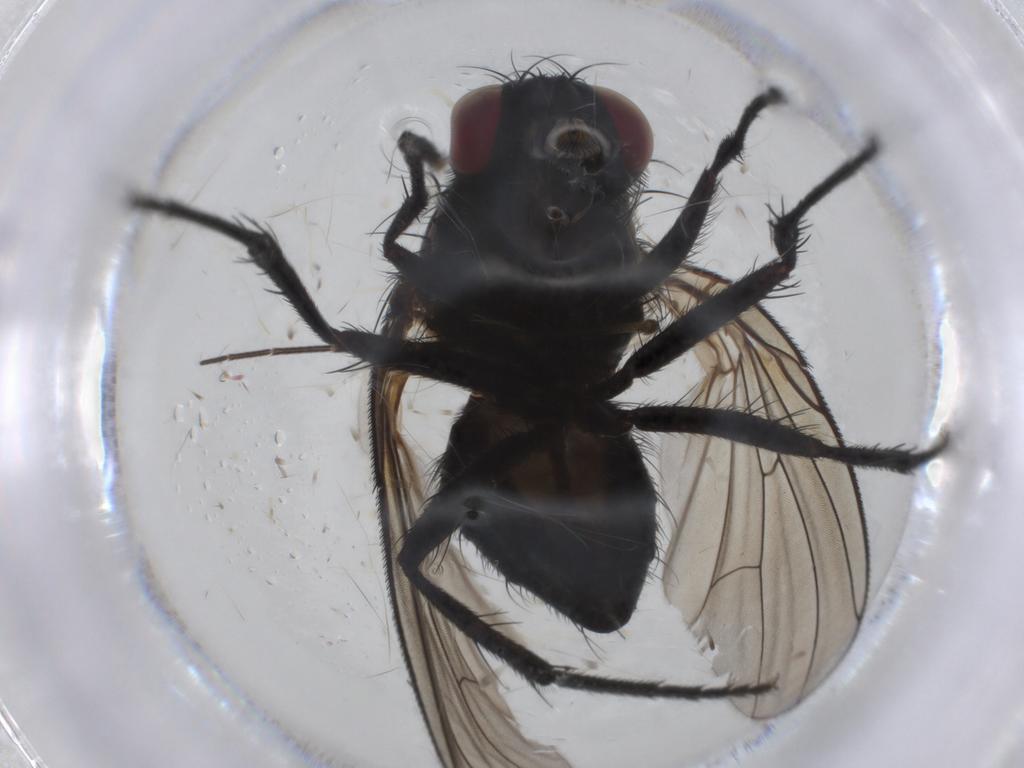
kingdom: Animalia
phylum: Arthropoda
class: Insecta
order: Diptera
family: Fannia
